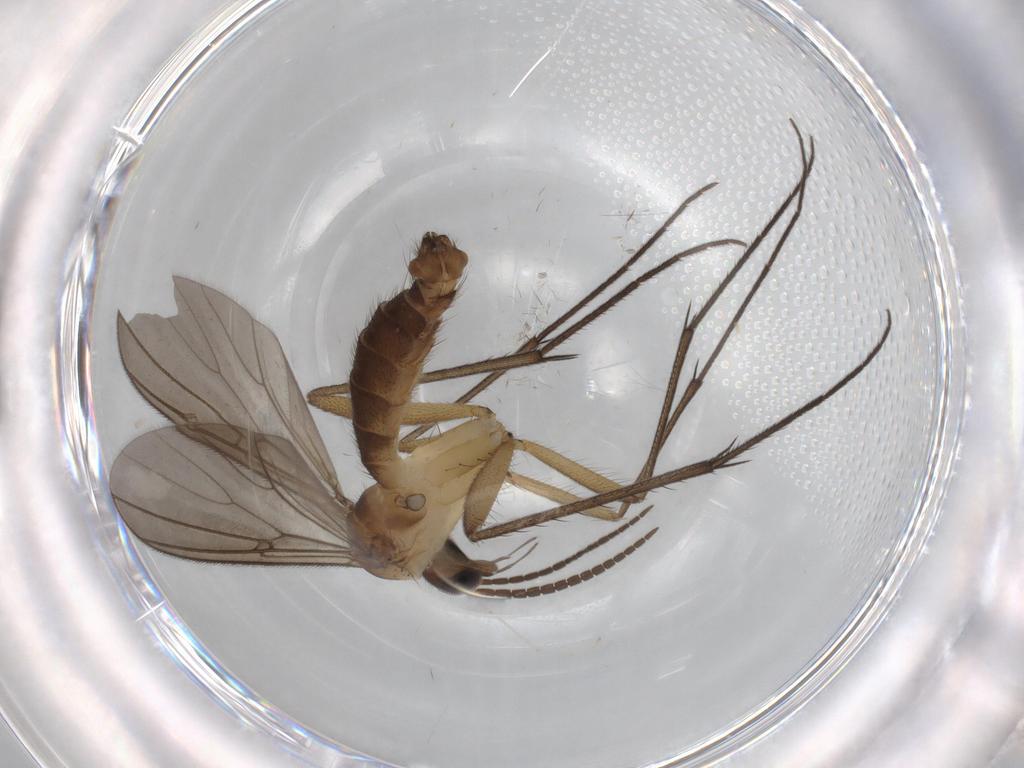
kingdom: Animalia
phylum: Arthropoda
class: Insecta
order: Diptera
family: Phoridae
